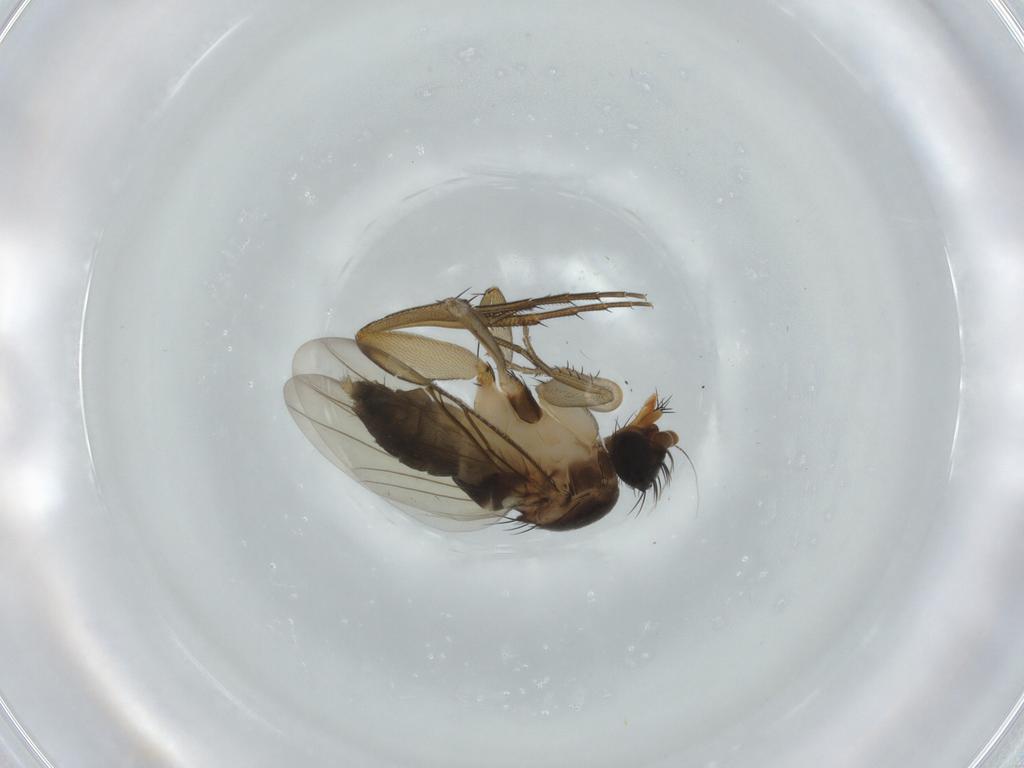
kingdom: Animalia
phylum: Arthropoda
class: Insecta
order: Diptera
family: Phoridae
